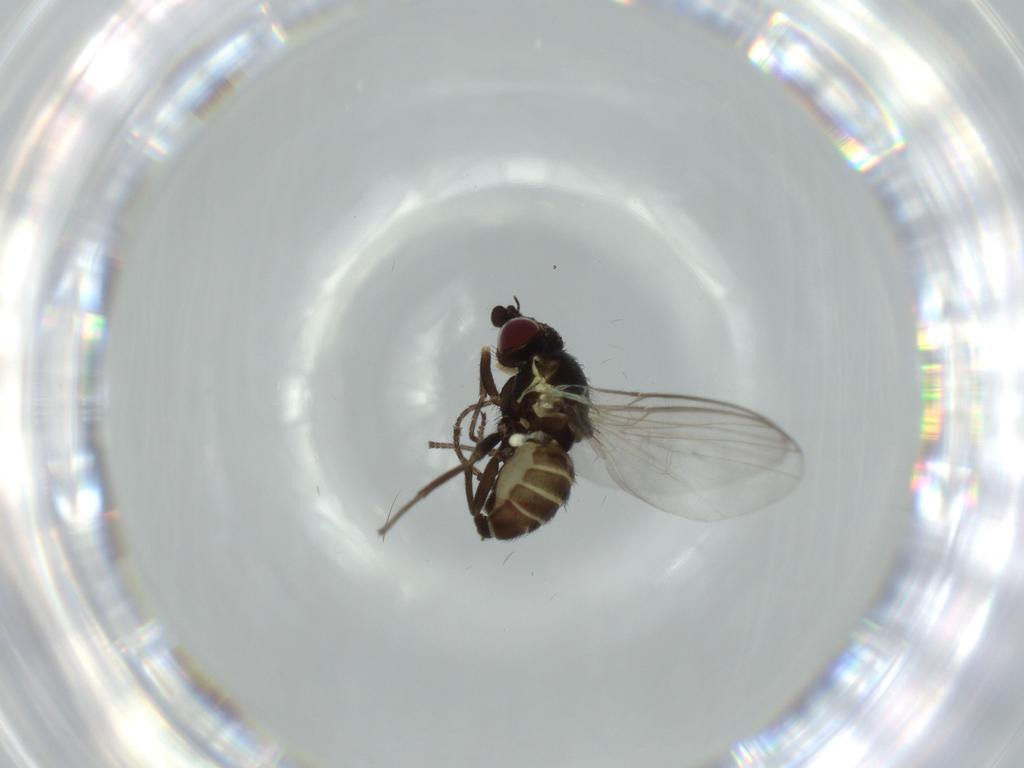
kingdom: Animalia
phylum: Arthropoda
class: Insecta
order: Diptera
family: Chironomidae
